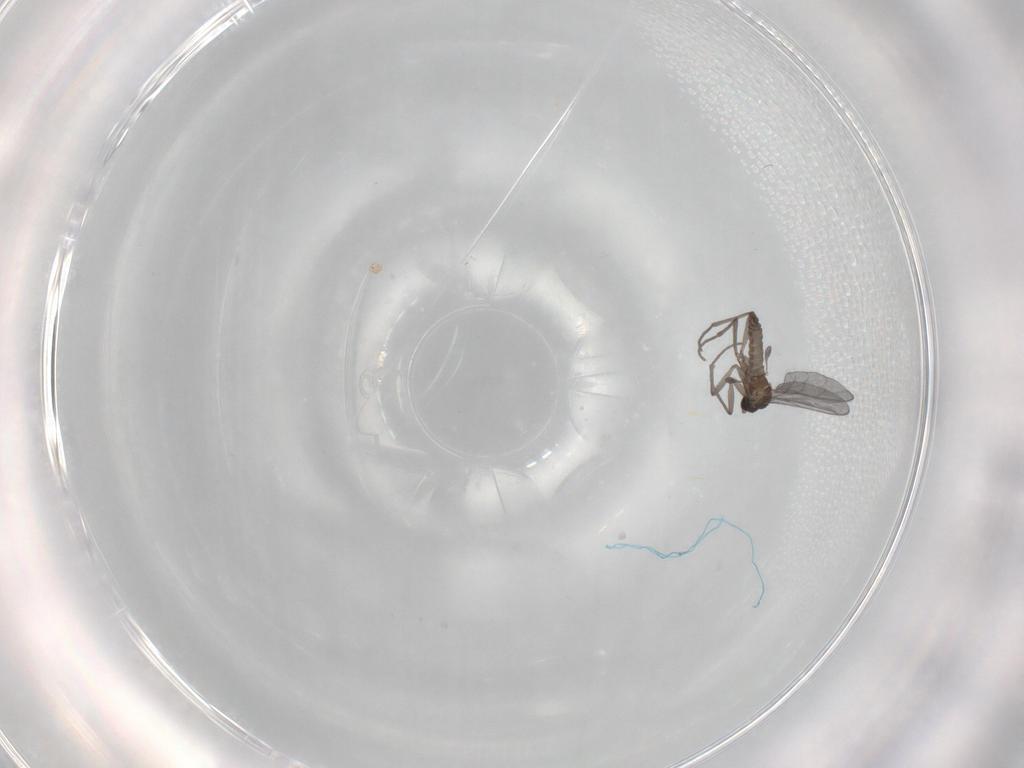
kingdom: Animalia
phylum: Arthropoda
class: Insecta
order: Diptera
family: Sciaridae
